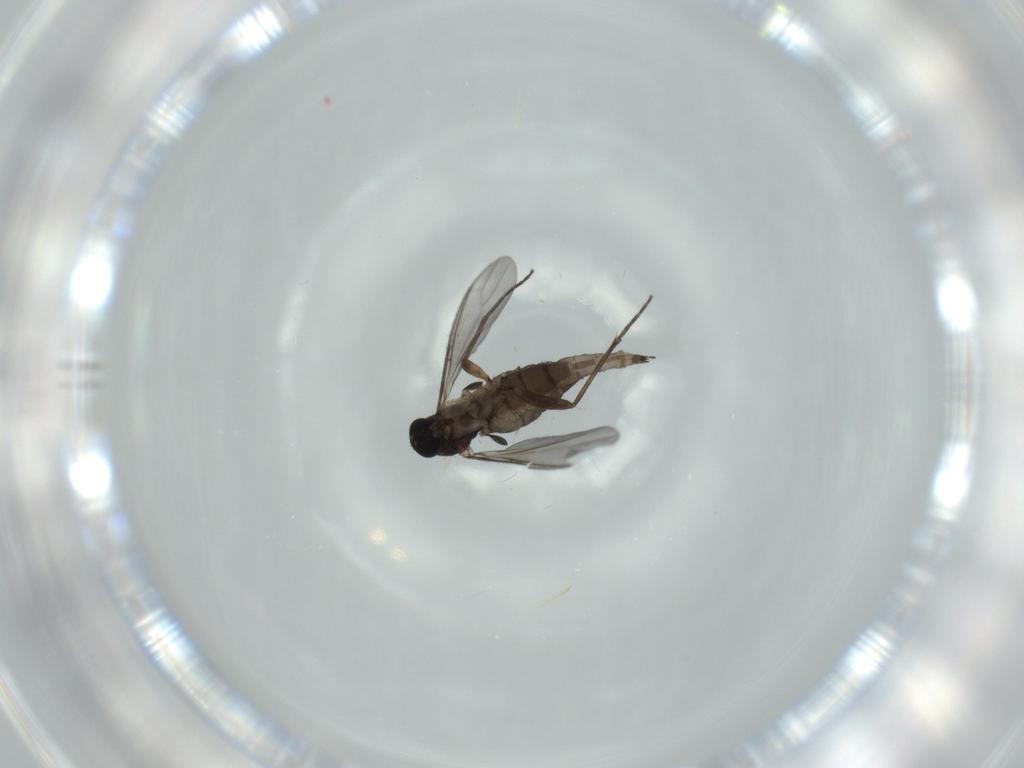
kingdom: Animalia
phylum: Arthropoda
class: Insecta
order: Diptera
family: Sciaridae
